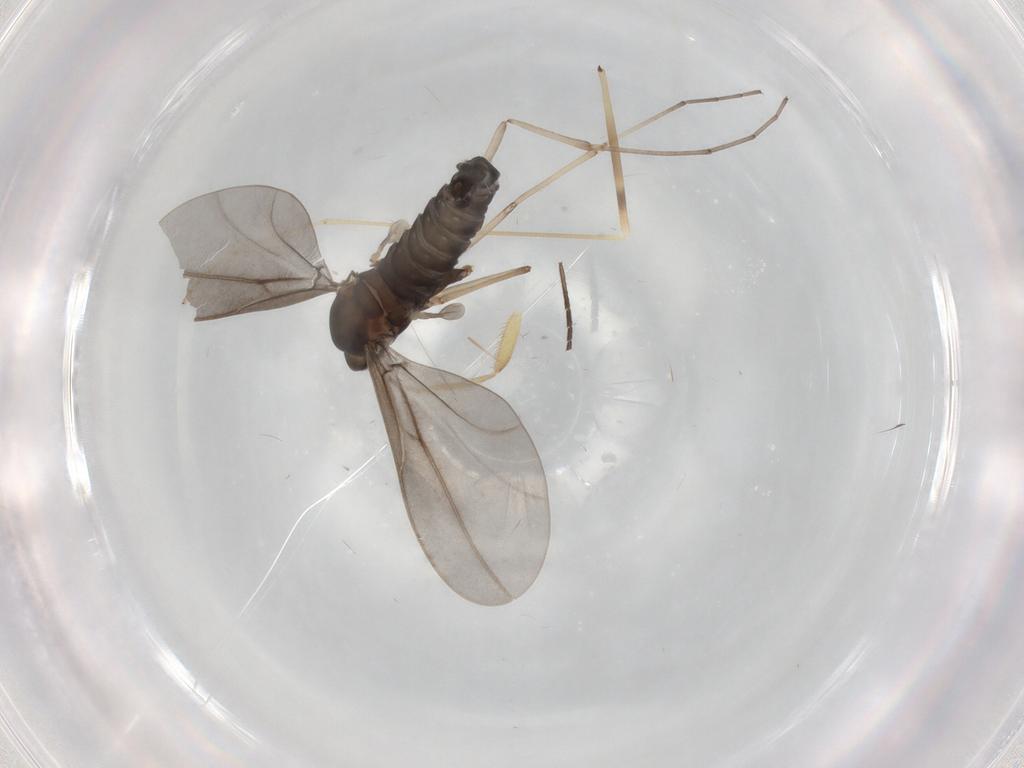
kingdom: Animalia
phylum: Arthropoda
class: Insecta
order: Diptera
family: Cecidomyiidae
